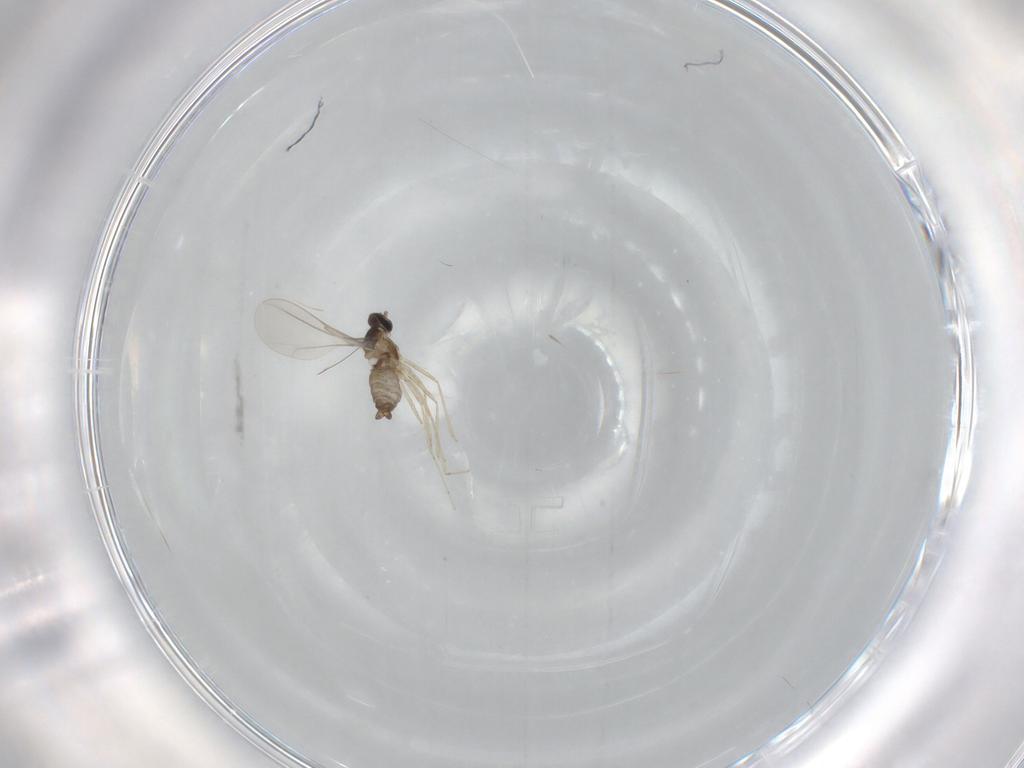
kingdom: Animalia
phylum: Arthropoda
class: Insecta
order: Diptera
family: Cecidomyiidae
